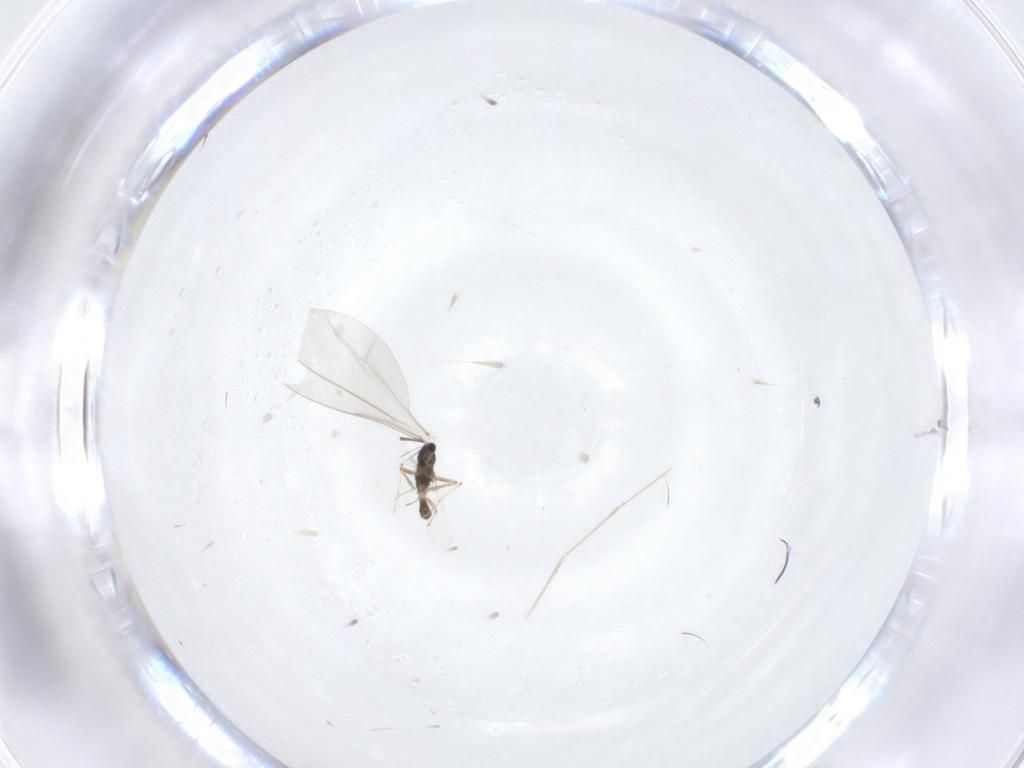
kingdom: Animalia
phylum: Arthropoda
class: Insecta
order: Diptera
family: Chironomidae
